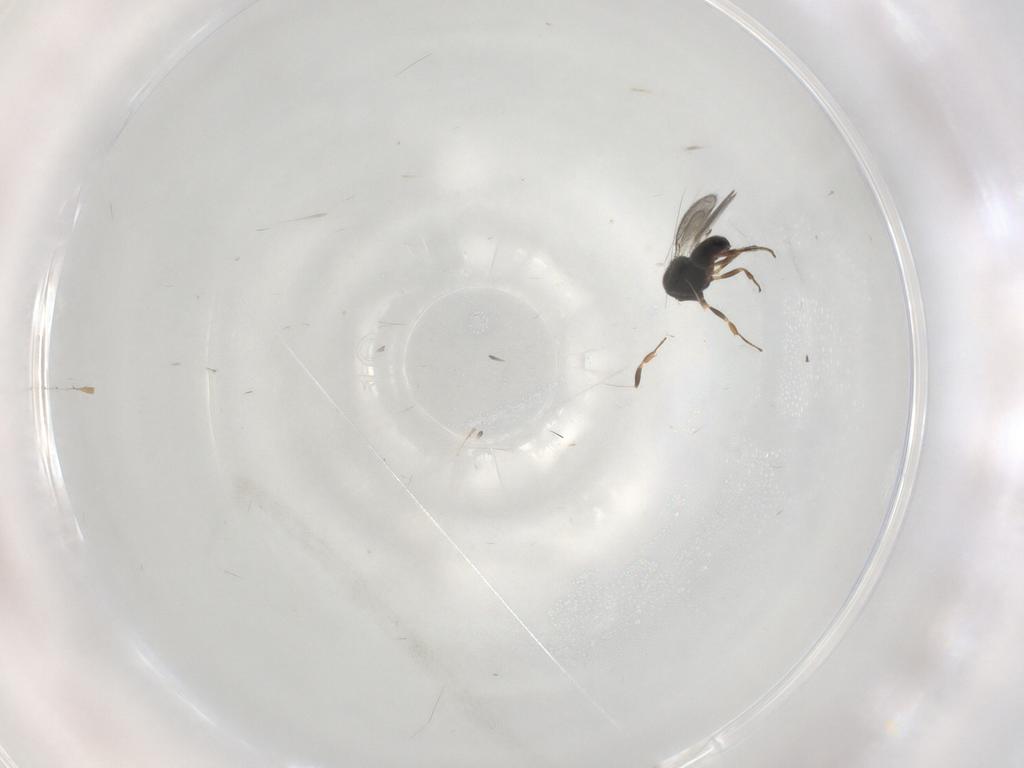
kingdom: Animalia
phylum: Arthropoda
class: Insecta
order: Hymenoptera
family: Scelionidae
